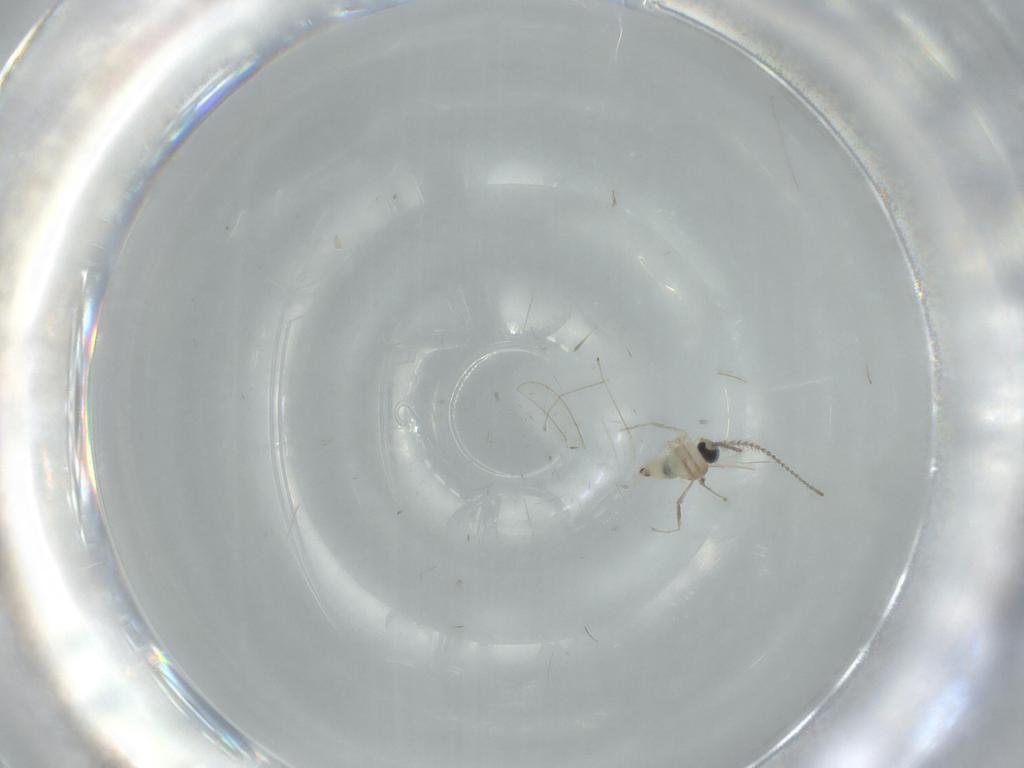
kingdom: Animalia
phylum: Arthropoda
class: Insecta
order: Diptera
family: Cecidomyiidae
